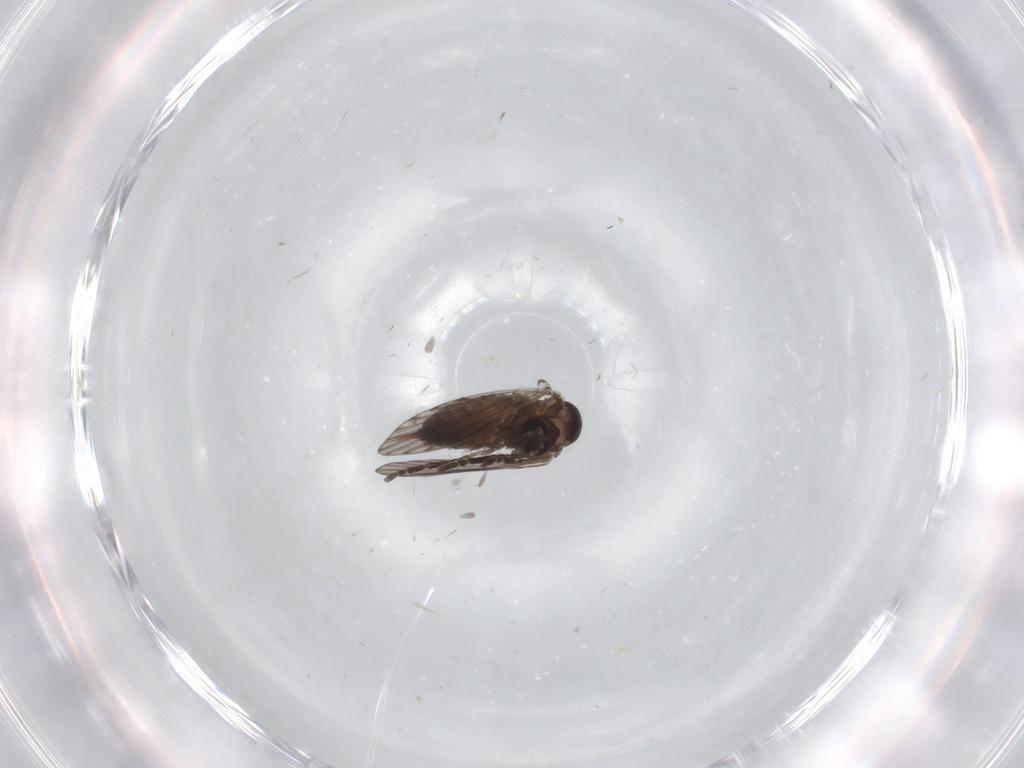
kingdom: Animalia
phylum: Arthropoda
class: Insecta
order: Diptera
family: Psychodidae
